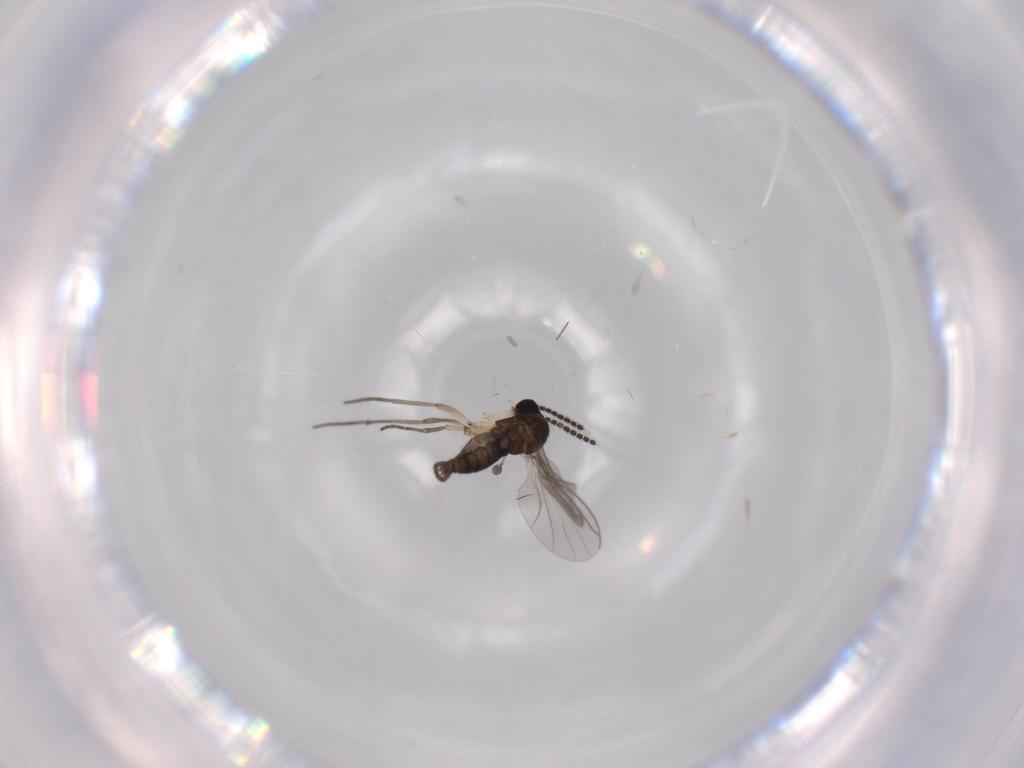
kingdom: Animalia
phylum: Arthropoda
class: Insecta
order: Diptera
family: Sciaridae
